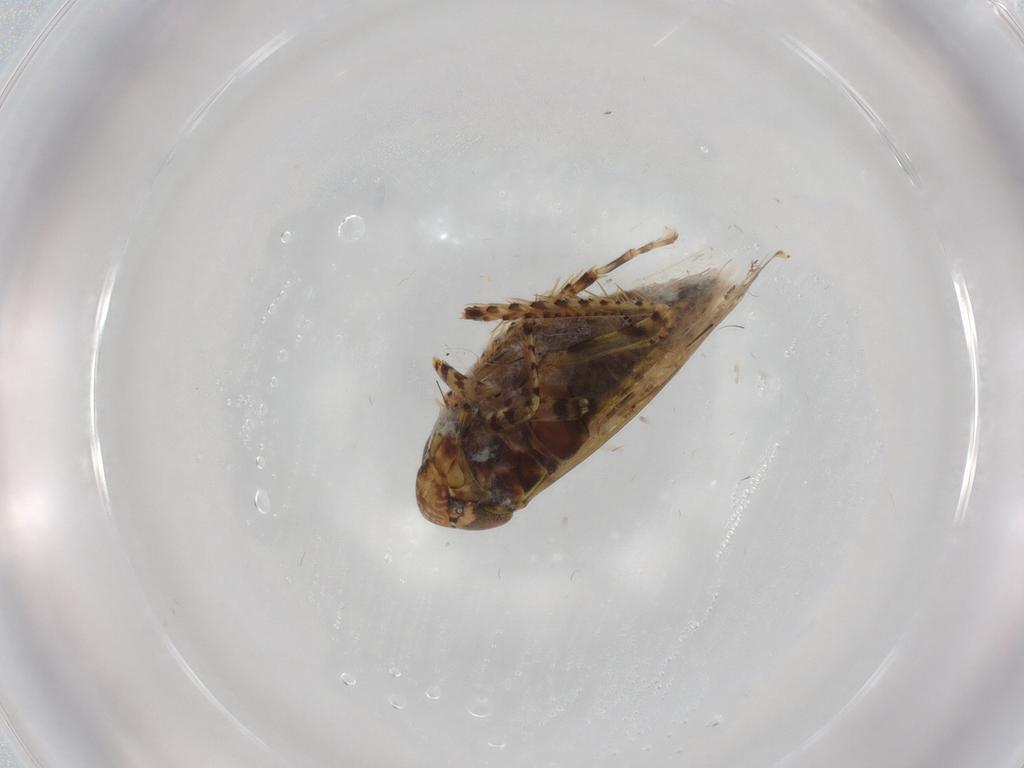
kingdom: Animalia
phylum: Arthropoda
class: Insecta
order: Hemiptera
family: Cicadellidae
